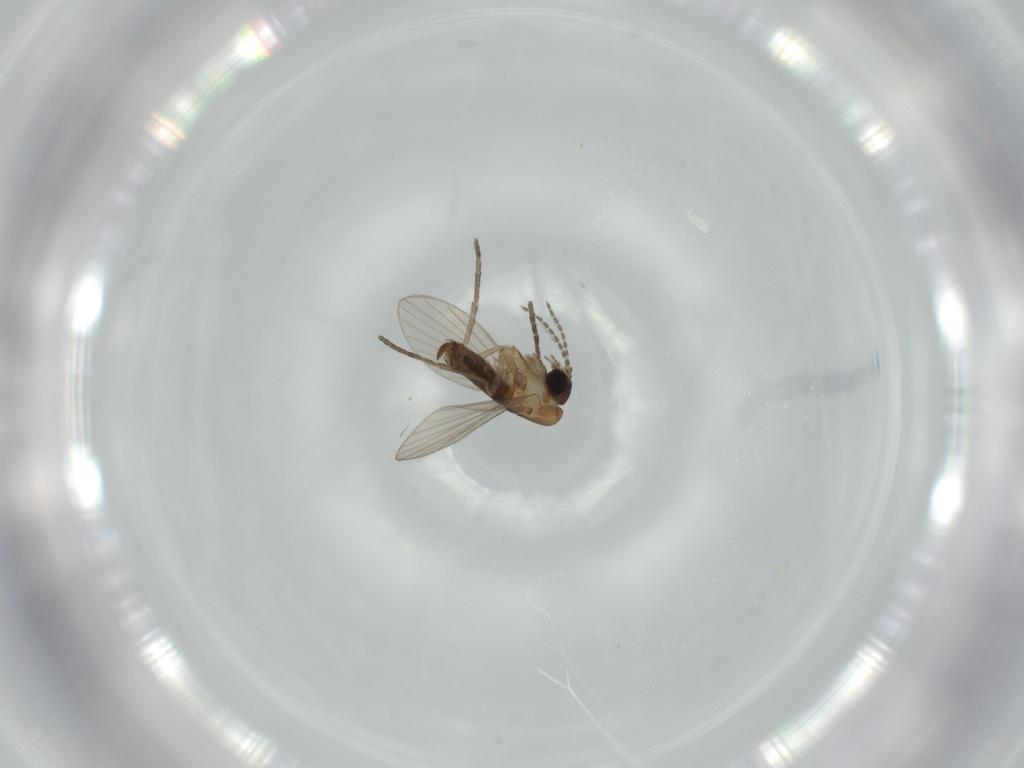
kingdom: Animalia
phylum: Arthropoda
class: Insecta
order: Diptera
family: Psychodidae
